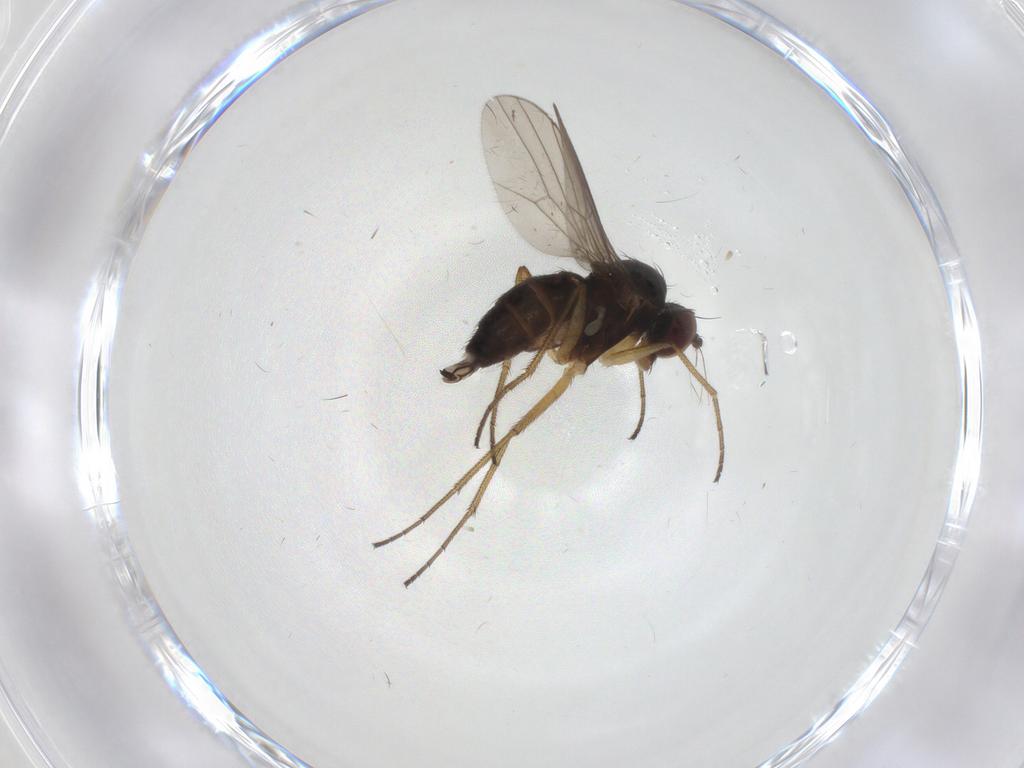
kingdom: Animalia
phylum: Arthropoda
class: Insecta
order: Diptera
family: Dolichopodidae
